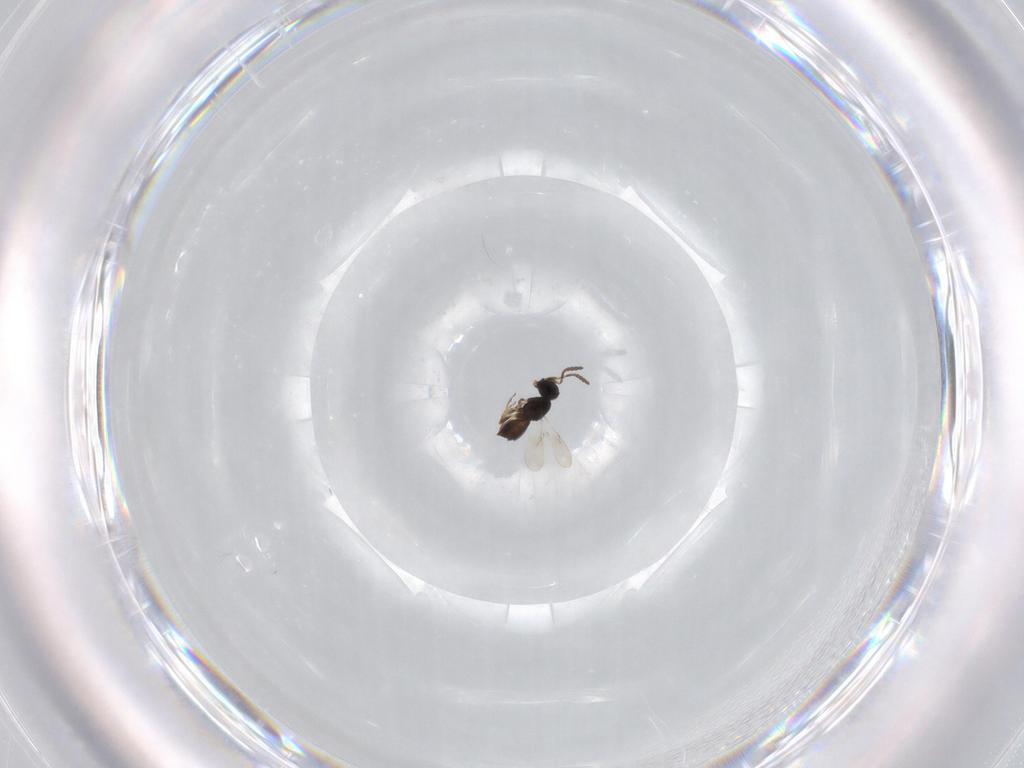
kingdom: Animalia
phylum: Arthropoda
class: Insecta
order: Hymenoptera
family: Scelionidae
